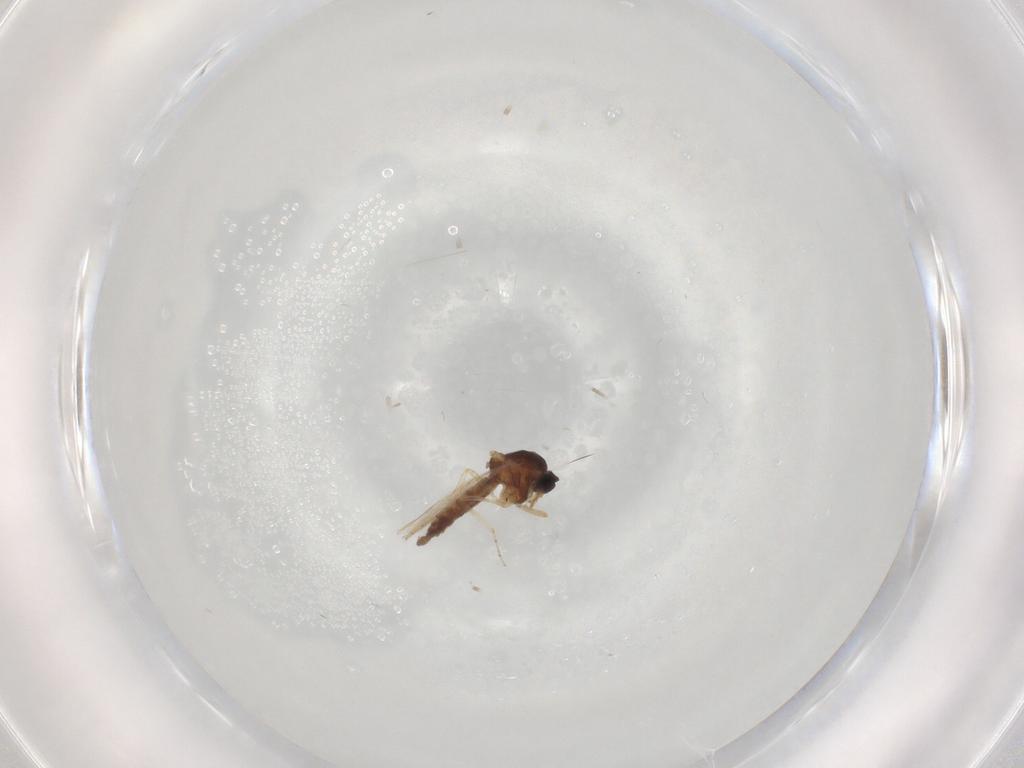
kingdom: Animalia
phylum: Arthropoda
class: Insecta
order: Diptera
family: Ceratopogonidae
